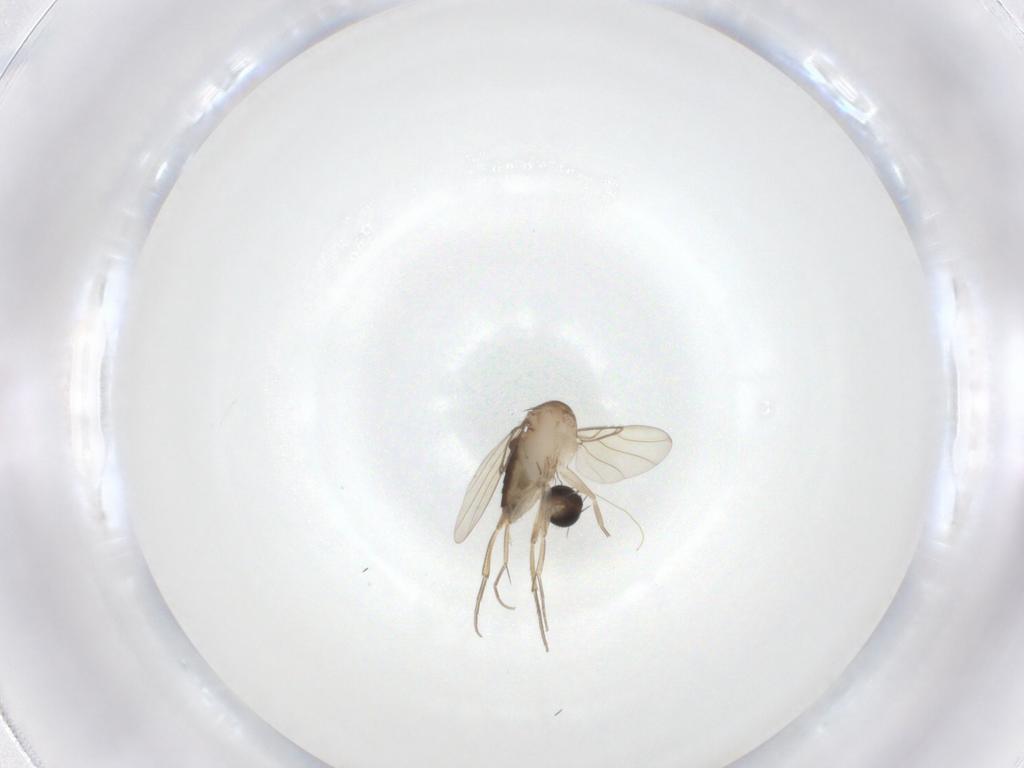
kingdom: Animalia
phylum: Arthropoda
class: Insecta
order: Diptera
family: Phoridae
